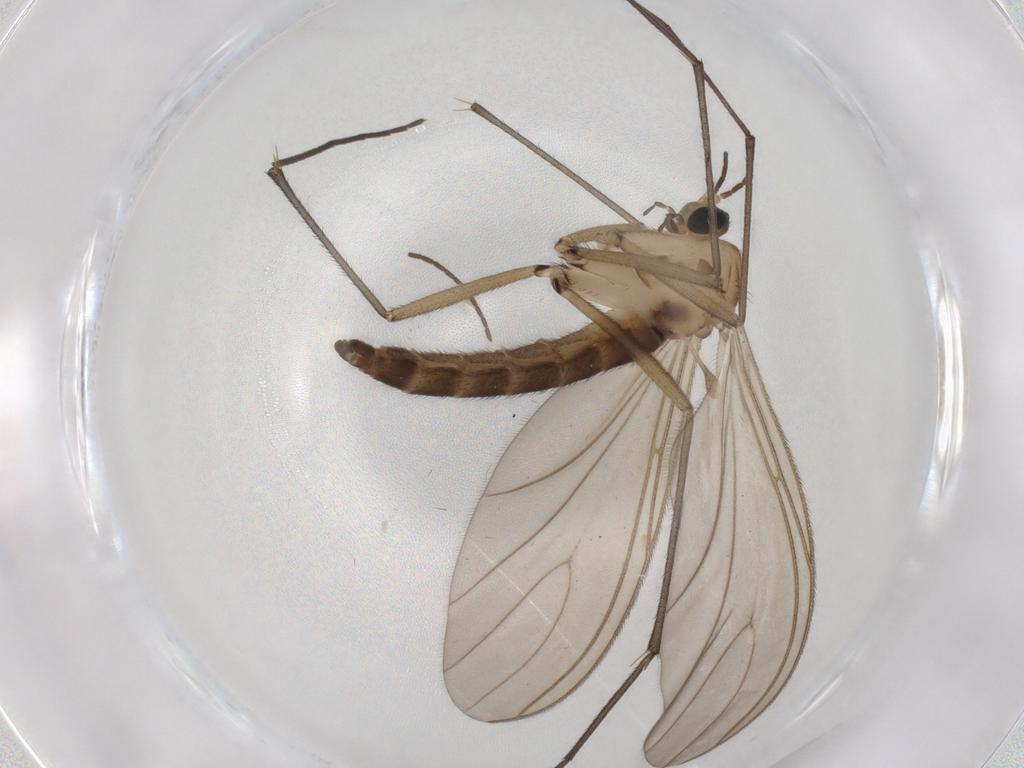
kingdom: Animalia
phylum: Arthropoda
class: Insecta
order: Diptera
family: Sciaridae
